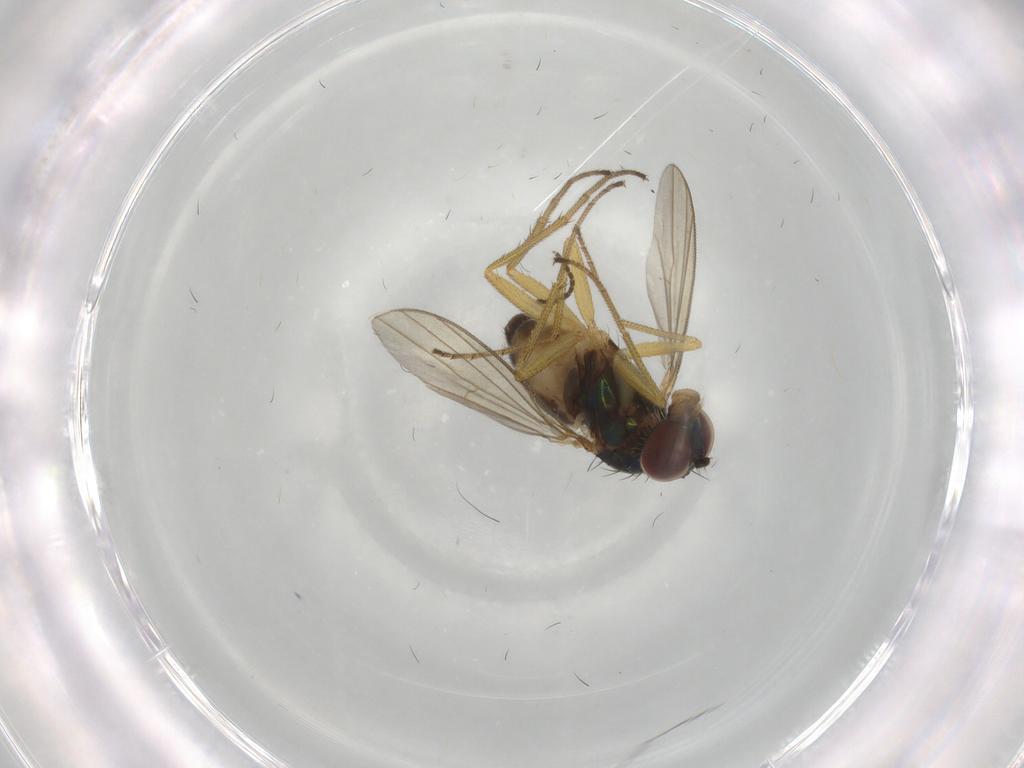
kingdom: Animalia
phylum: Arthropoda
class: Insecta
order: Diptera
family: Dolichopodidae
